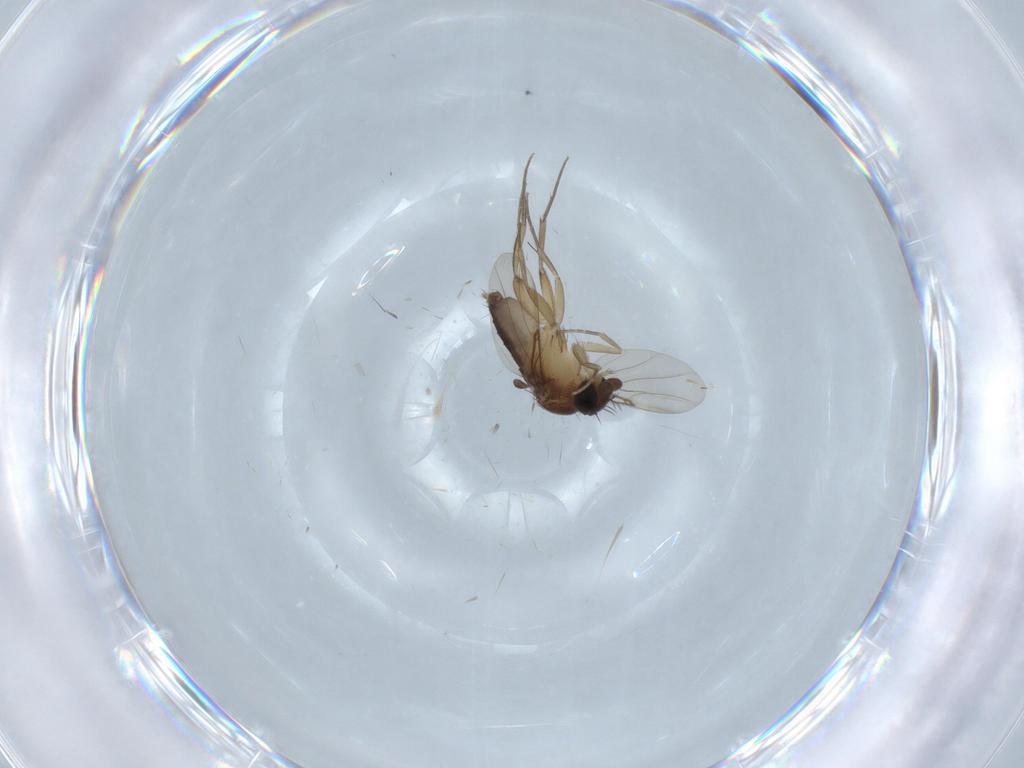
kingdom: Animalia
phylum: Arthropoda
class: Insecta
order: Diptera
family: Phoridae
